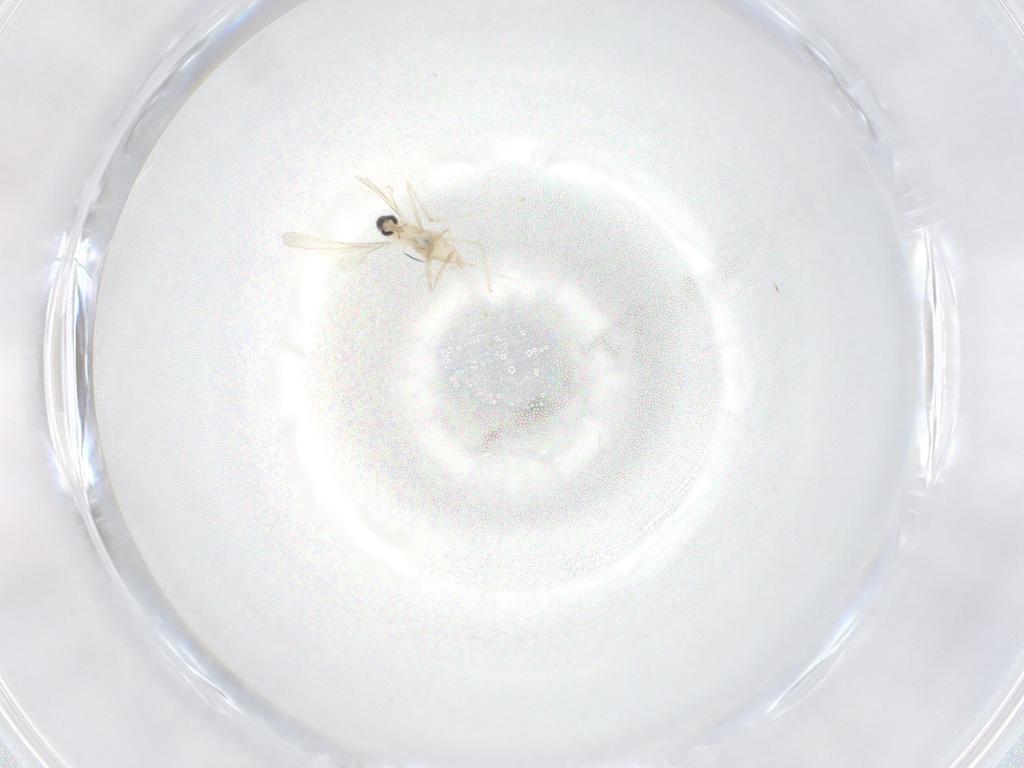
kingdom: Animalia
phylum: Arthropoda
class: Insecta
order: Diptera
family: Cecidomyiidae
